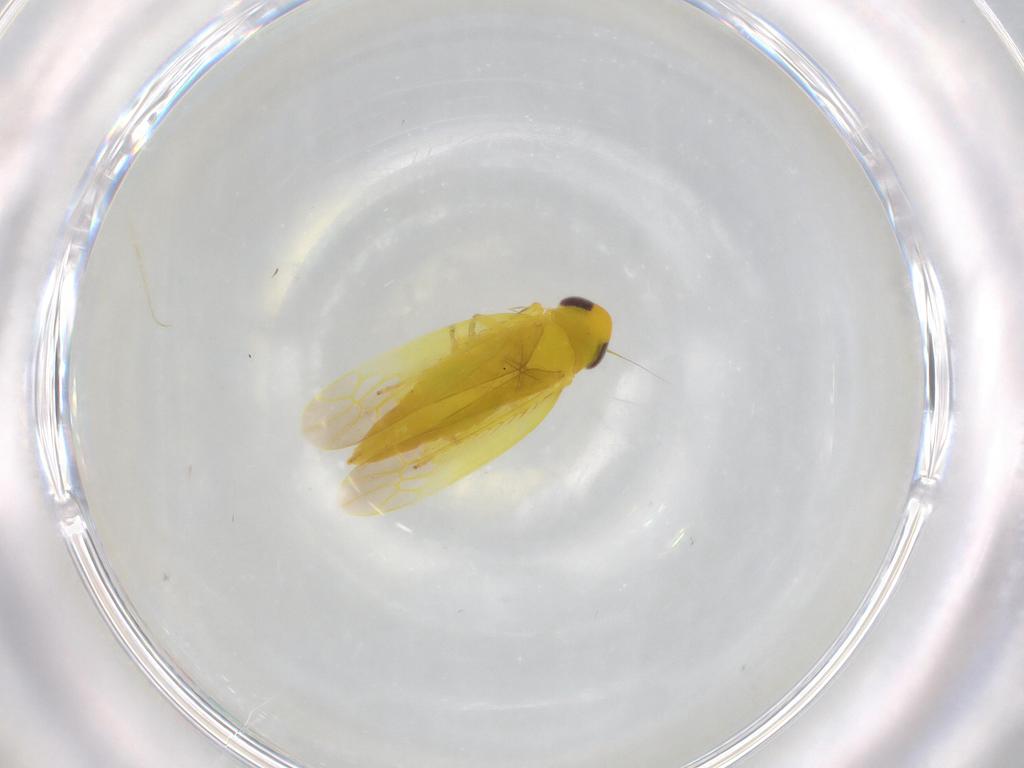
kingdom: Animalia
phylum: Arthropoda
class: Insecta
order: Hemiptera
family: Cicadellidae
